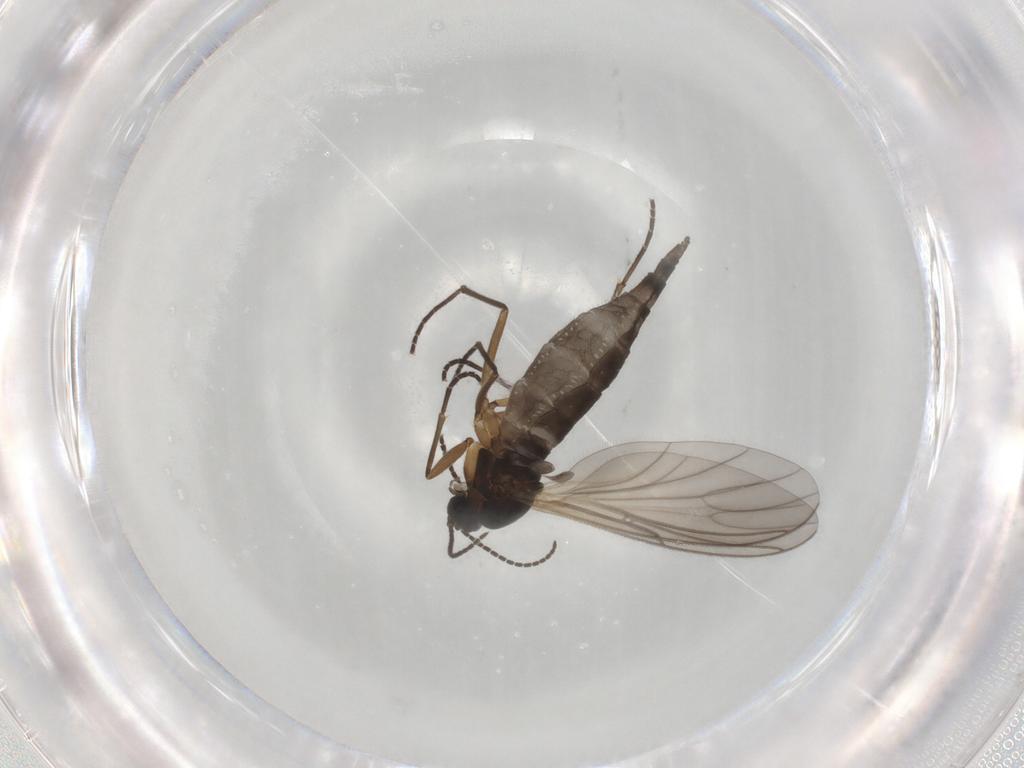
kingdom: Animalia
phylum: Arthropoda
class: Insecta
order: Diptera
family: Sciaridae
